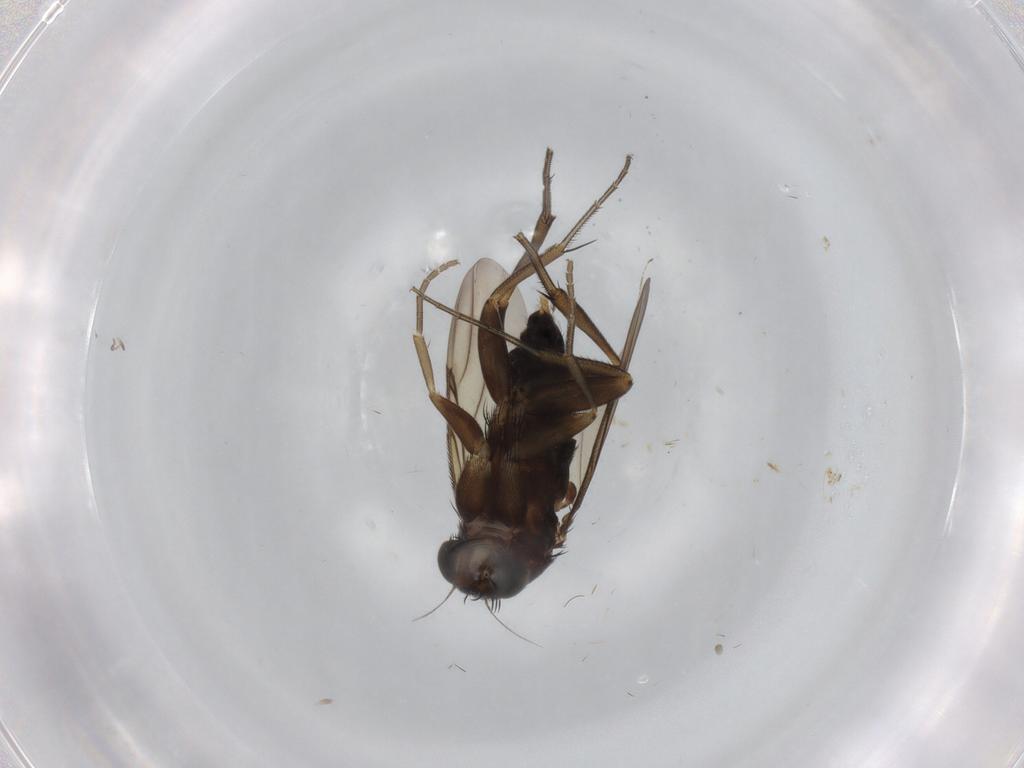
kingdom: Animalia
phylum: Arthropoda
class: Insecta
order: Diptera
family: Phoridae
